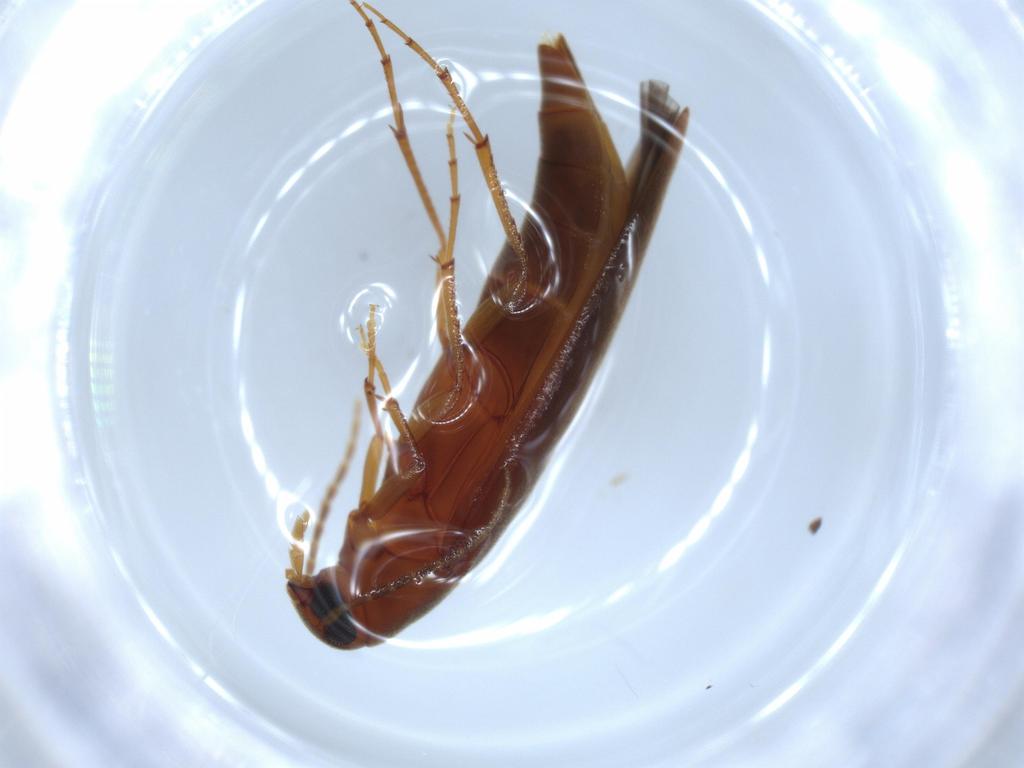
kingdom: Animalia
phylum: Arthropoda
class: Insecta
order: Coleoptera
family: Melandryidae
